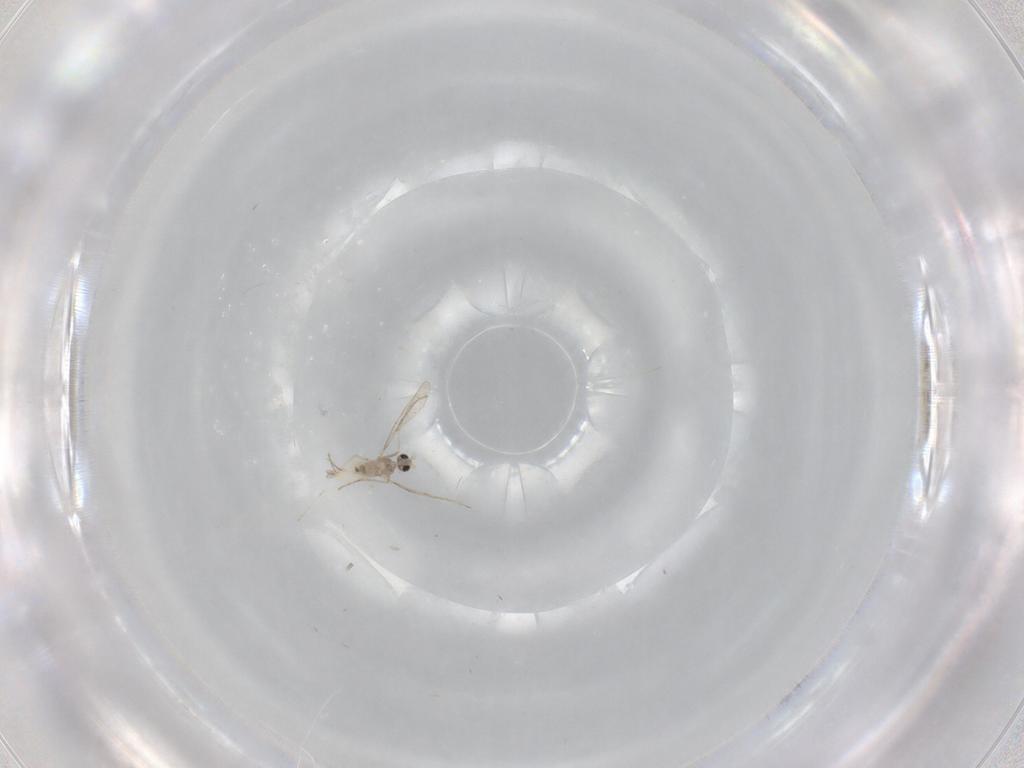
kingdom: Animalia
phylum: Arthropoda
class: Insecta
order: Diptera
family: Cecidomyiidae
